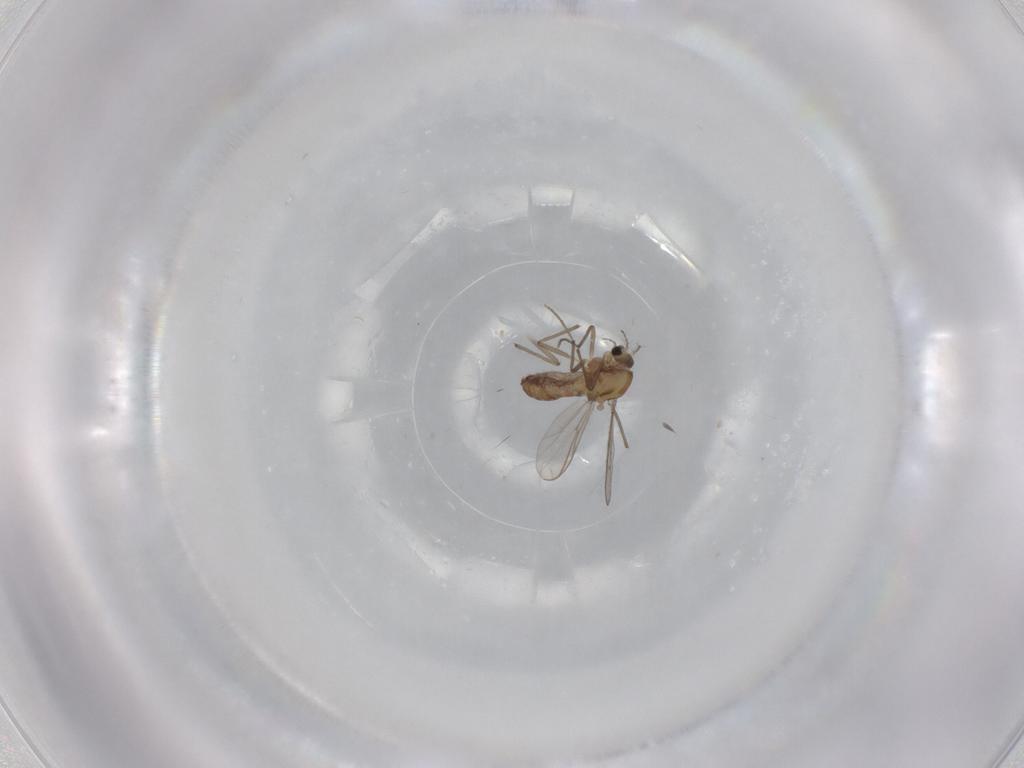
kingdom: Animalia
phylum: Arthropoda
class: Insecta
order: Diptera
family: Chironomidae
